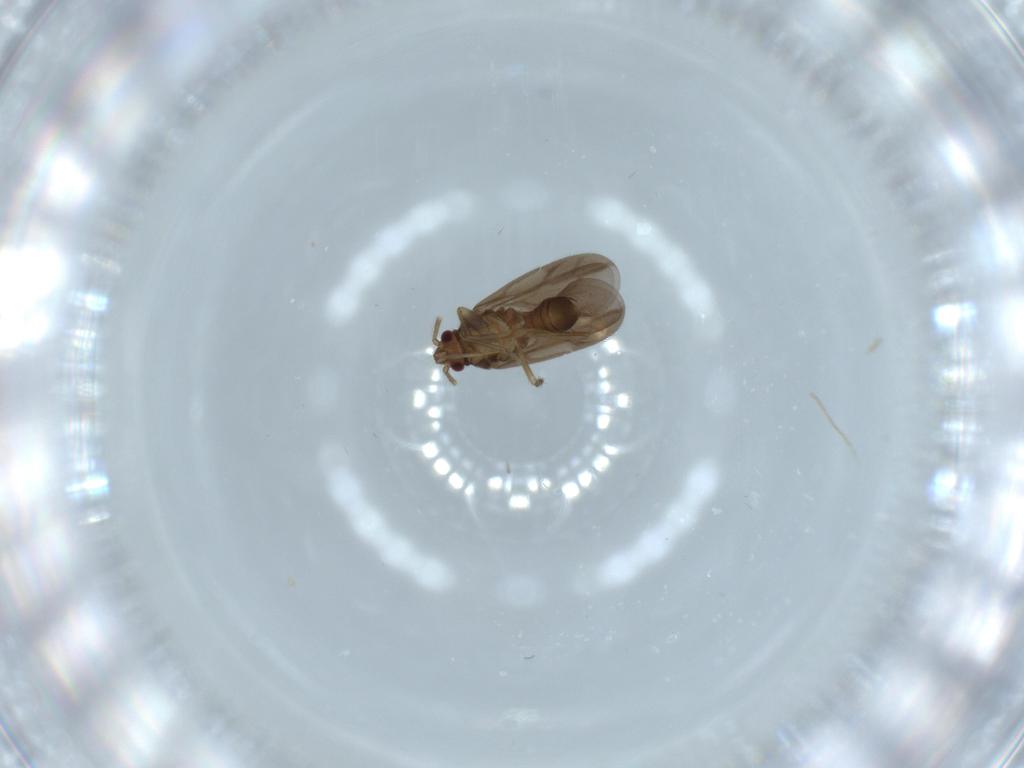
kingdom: Animalia
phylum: Arthropoda
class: Insecta
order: Hemiptera
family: Ceratocombidae
